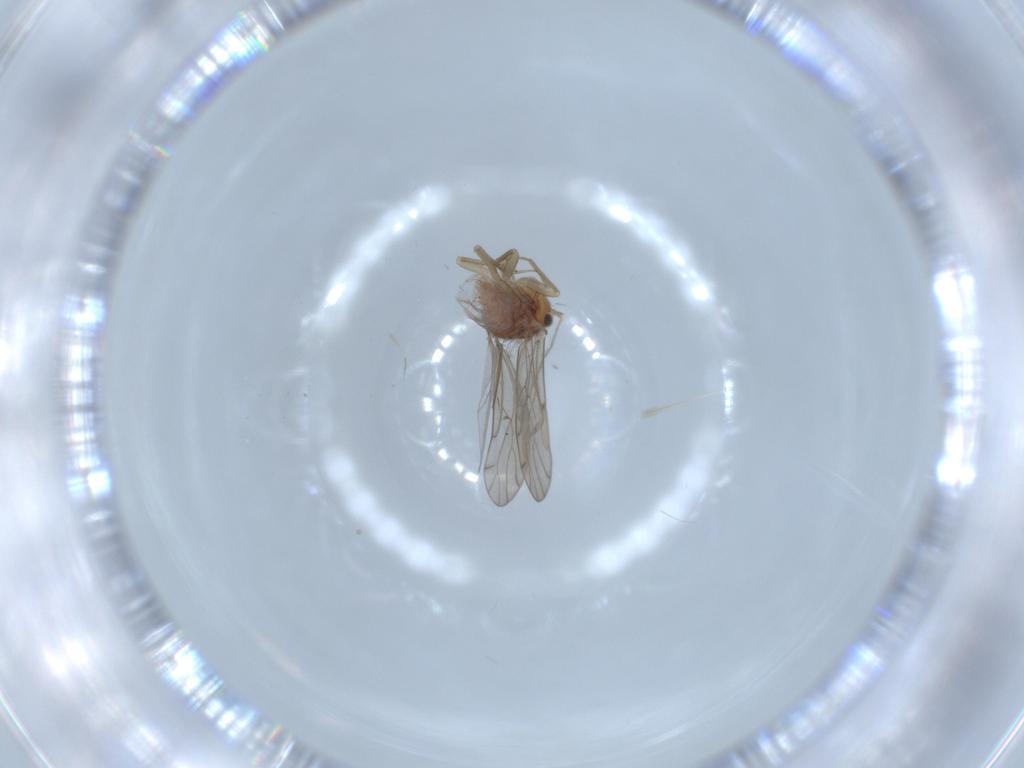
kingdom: Animalia
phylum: Arthropoda
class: Insecta
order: Psocodea
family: Ectopsocidae
